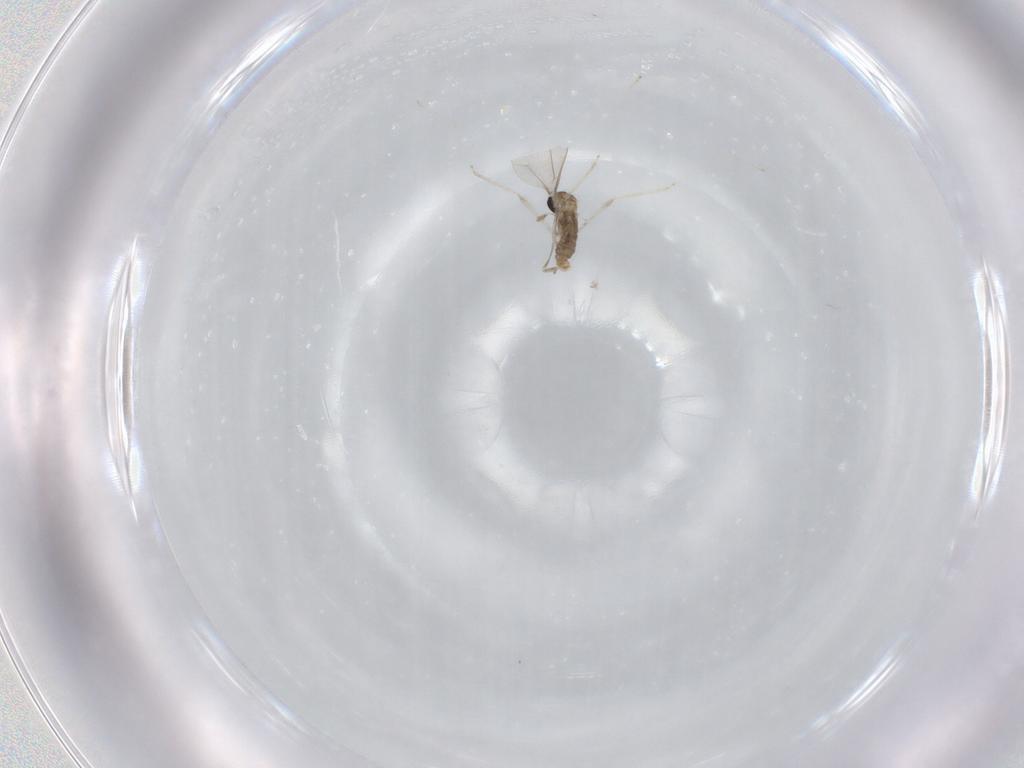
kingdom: Animalia
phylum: Arthropoda
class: Insecta
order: Diptera
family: Cecidomyiidae
